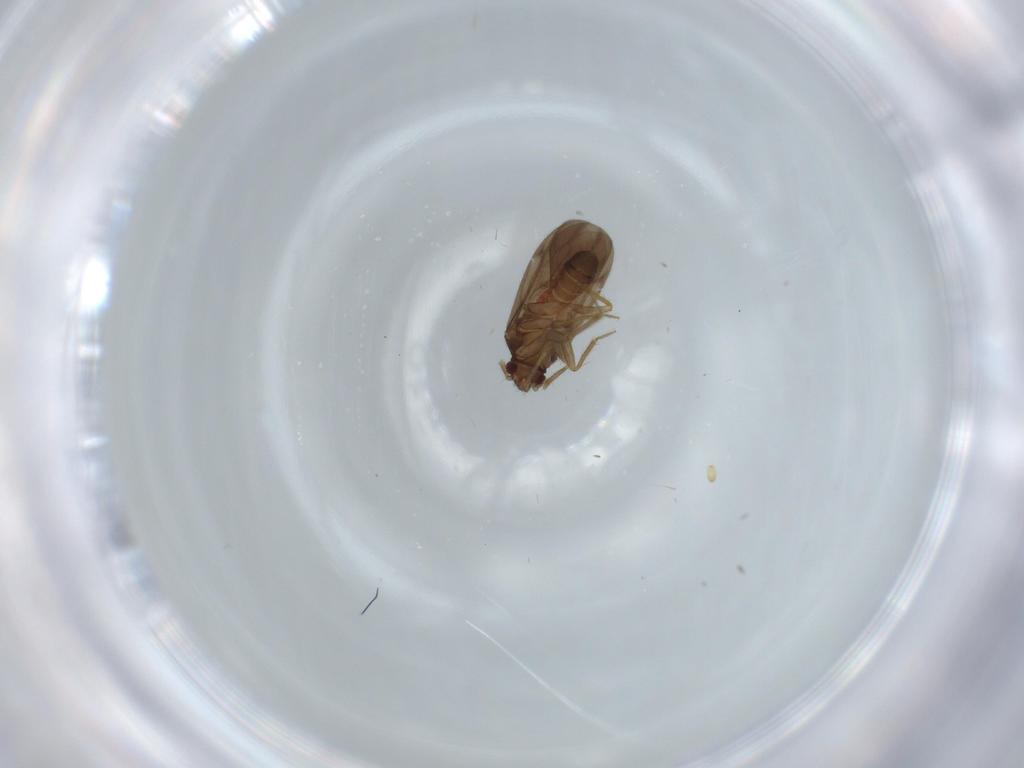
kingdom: Animalia
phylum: Arthropoda
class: Insecta
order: Hemiptera
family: Ceratocombidae
